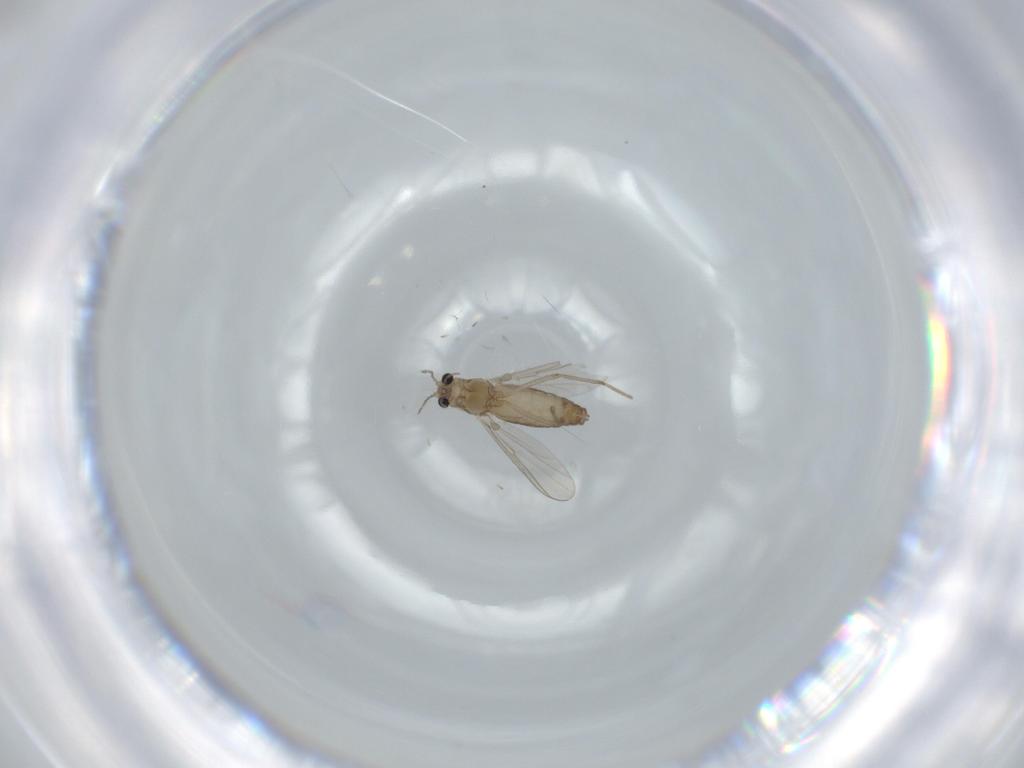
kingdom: Animalia
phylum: Arthropoda
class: Insecta
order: Diptera
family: Chironomidae
